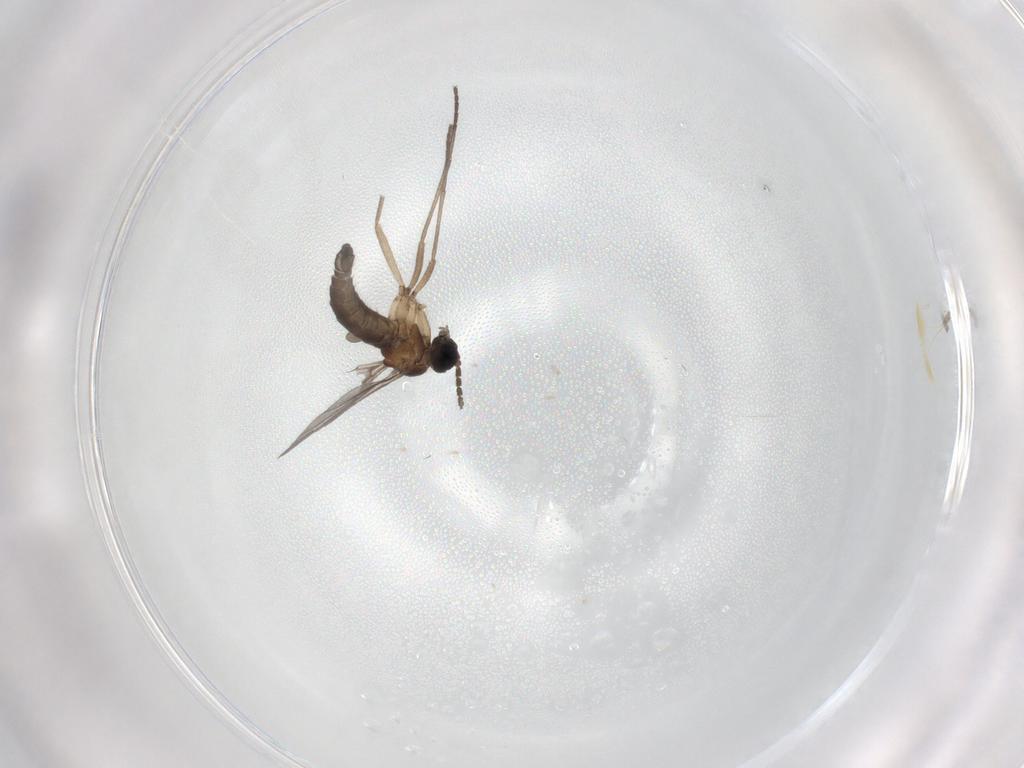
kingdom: Animalia
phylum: Arthropoda
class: Insecta
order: Diptera
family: Sciaridae
